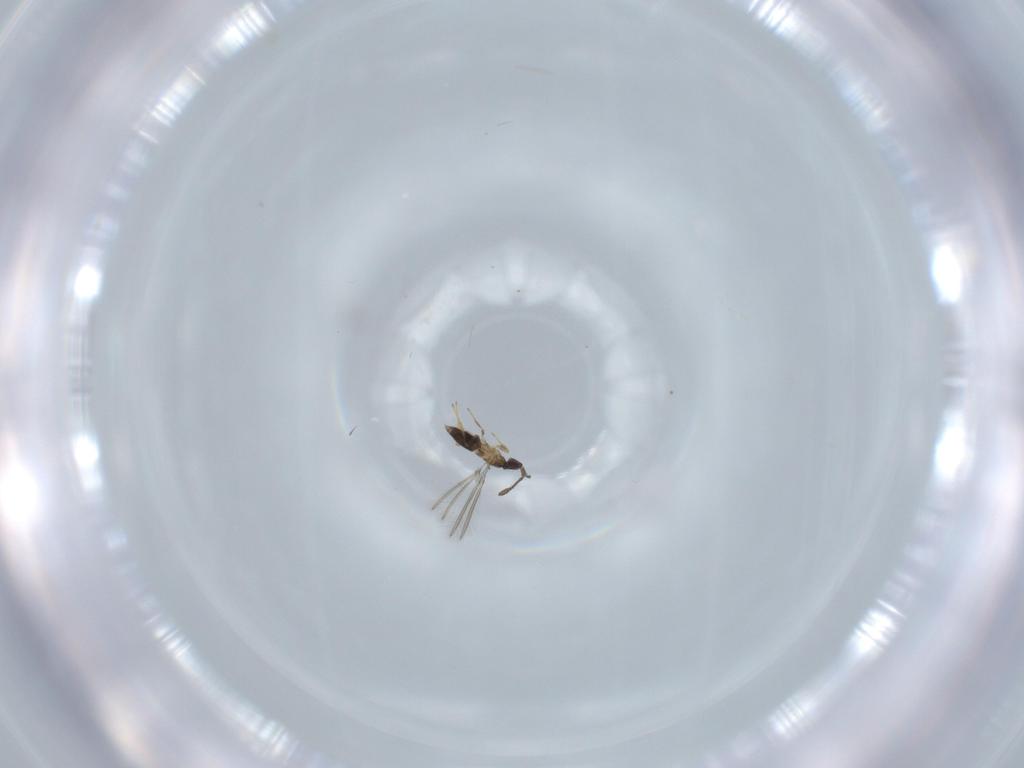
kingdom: Animalia
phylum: Arthropoda
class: Insecta
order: Hymenoptera
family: Mymaridae
